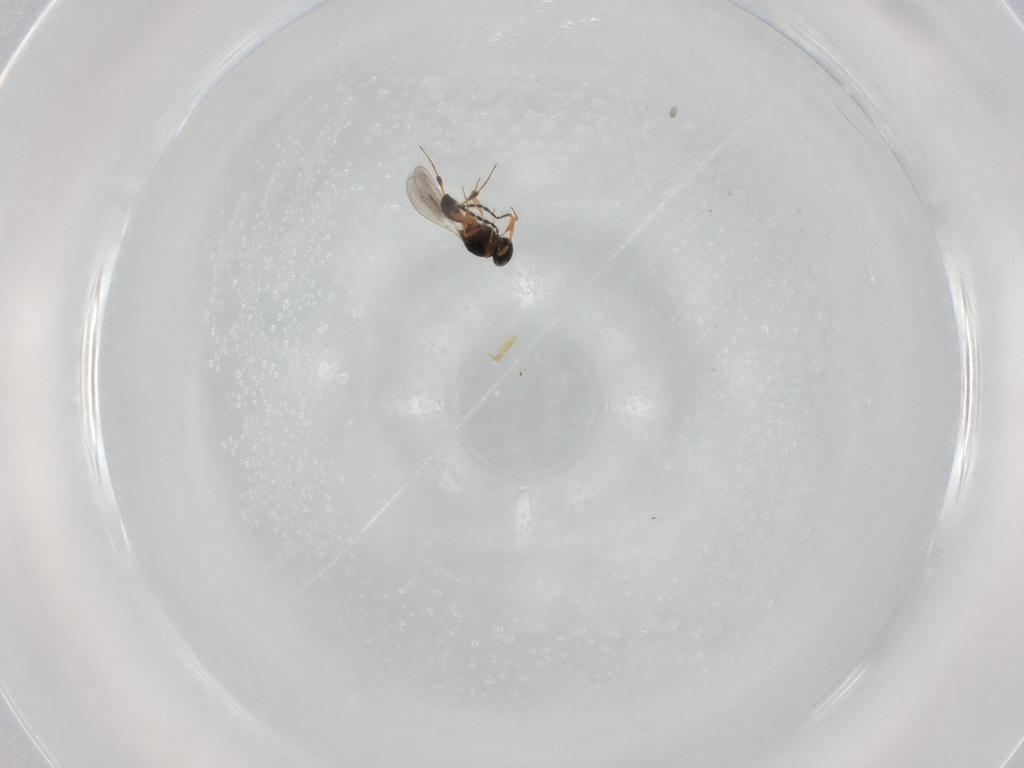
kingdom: Animalia
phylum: Arthropoda
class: Insecta
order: Hymenoptera
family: Platygastridae
